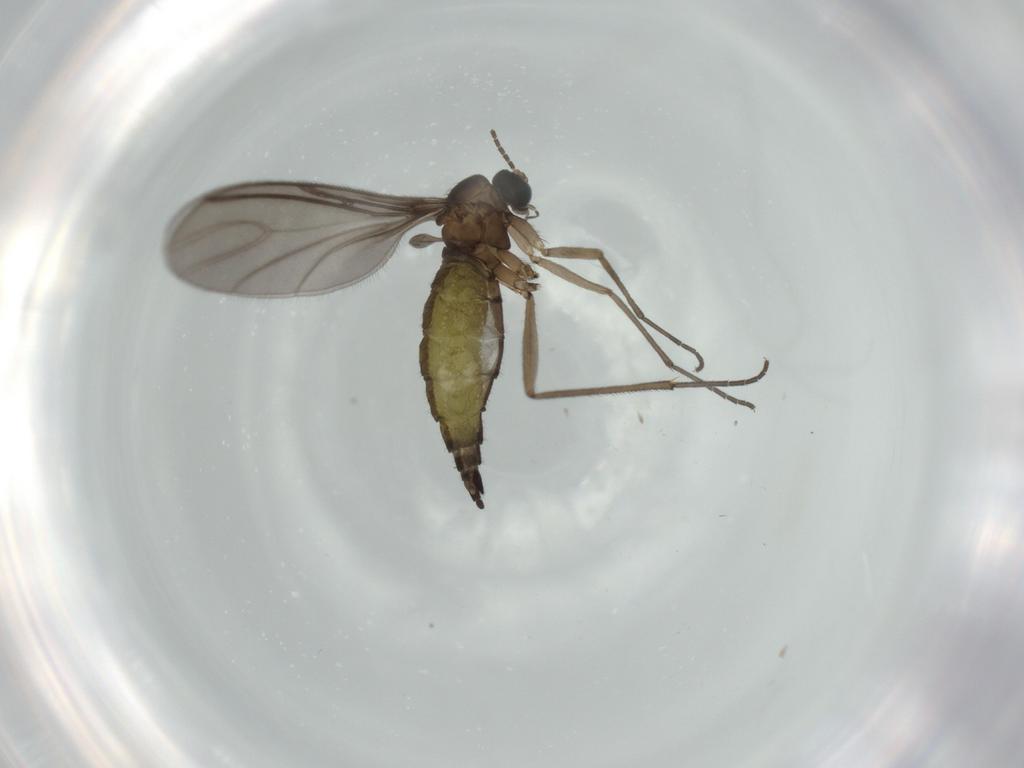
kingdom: Animalia
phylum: Arthropoda
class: Insecta
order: Diptera
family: Sciaridae
